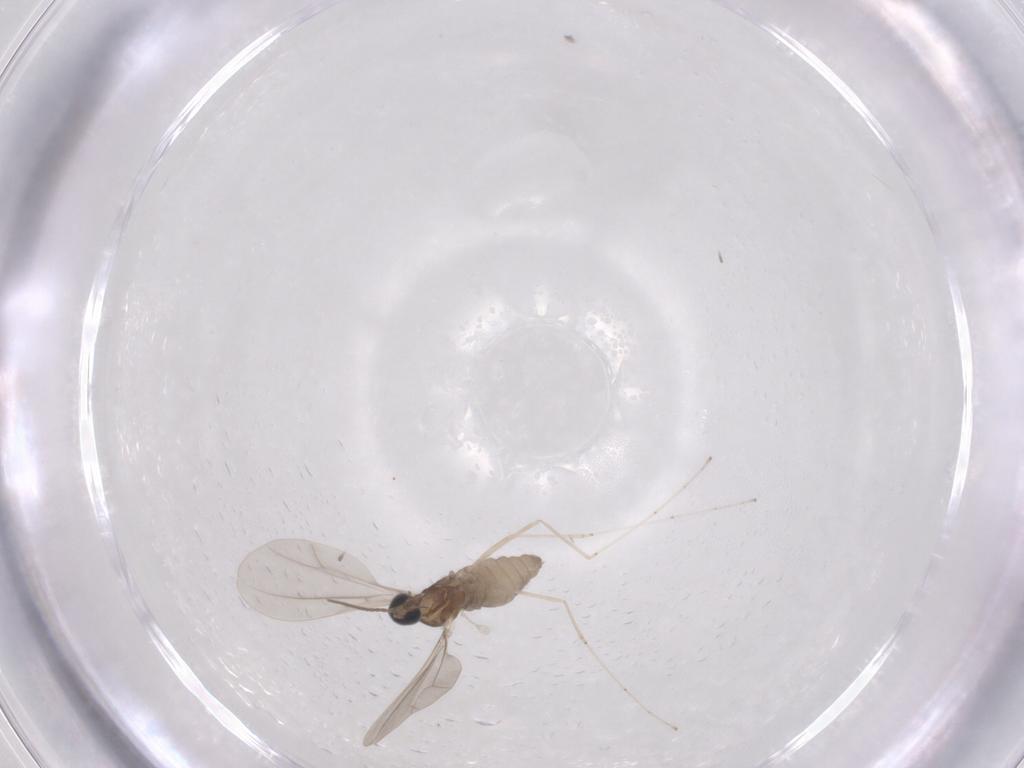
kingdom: Animalia
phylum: Arthropoda
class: Insecta
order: Diptera
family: Cecidomyiidae
